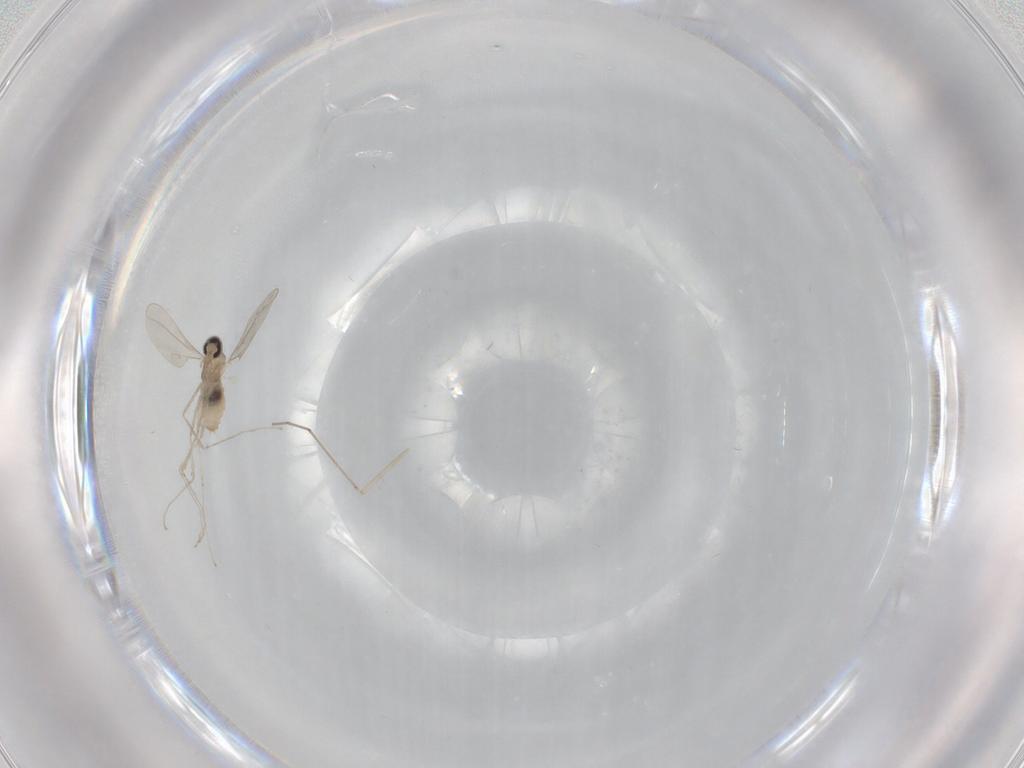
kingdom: Animalia
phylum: Arthropoda
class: Insecta
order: Diptera
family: Cecidomyiidae
